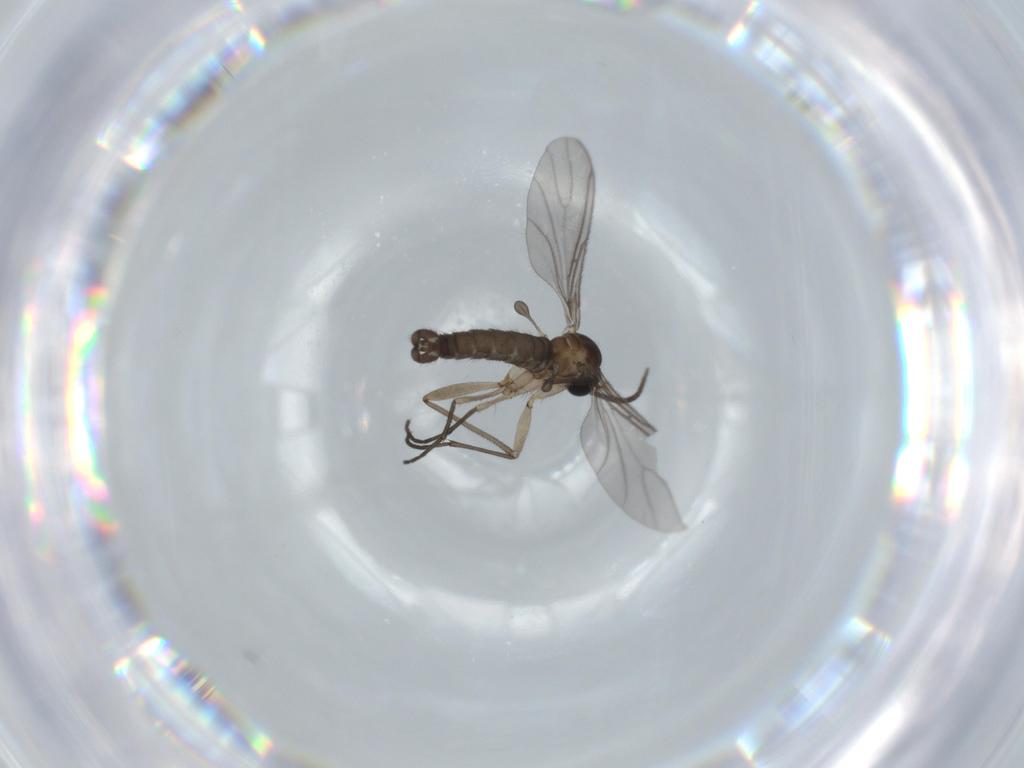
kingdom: Animalia
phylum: Arthropoda
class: Insecta
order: Diptera
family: Sciaridae
